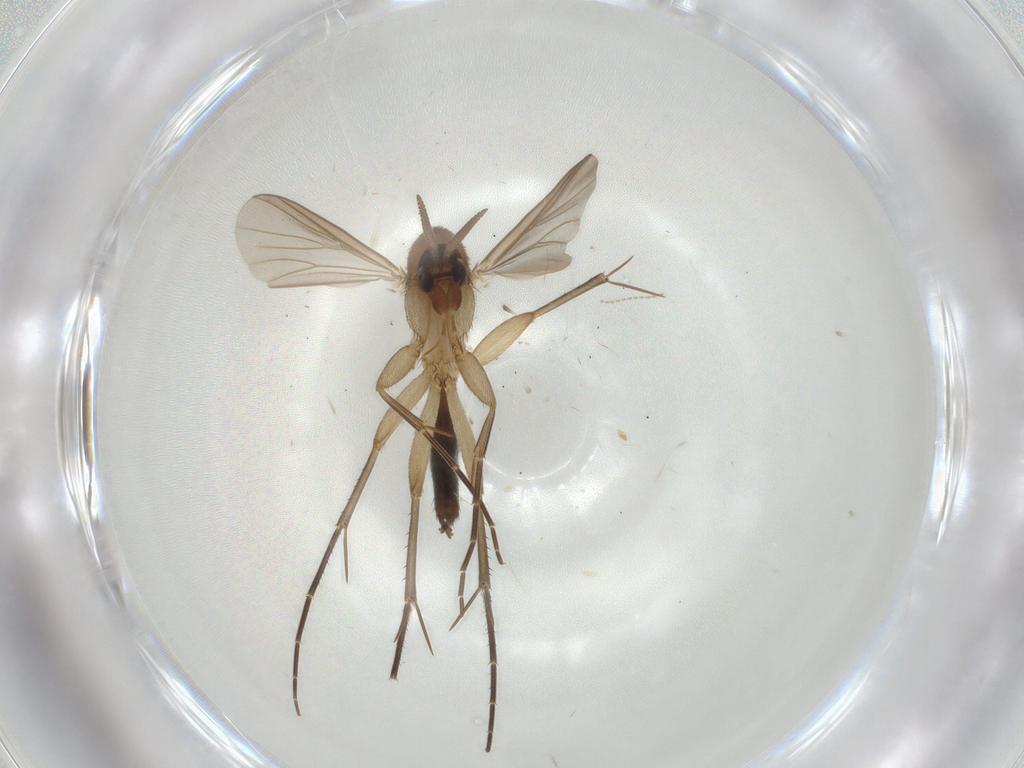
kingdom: Animalia
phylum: Arthropoda
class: Insecta
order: Diptera
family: Mycetophilidae
